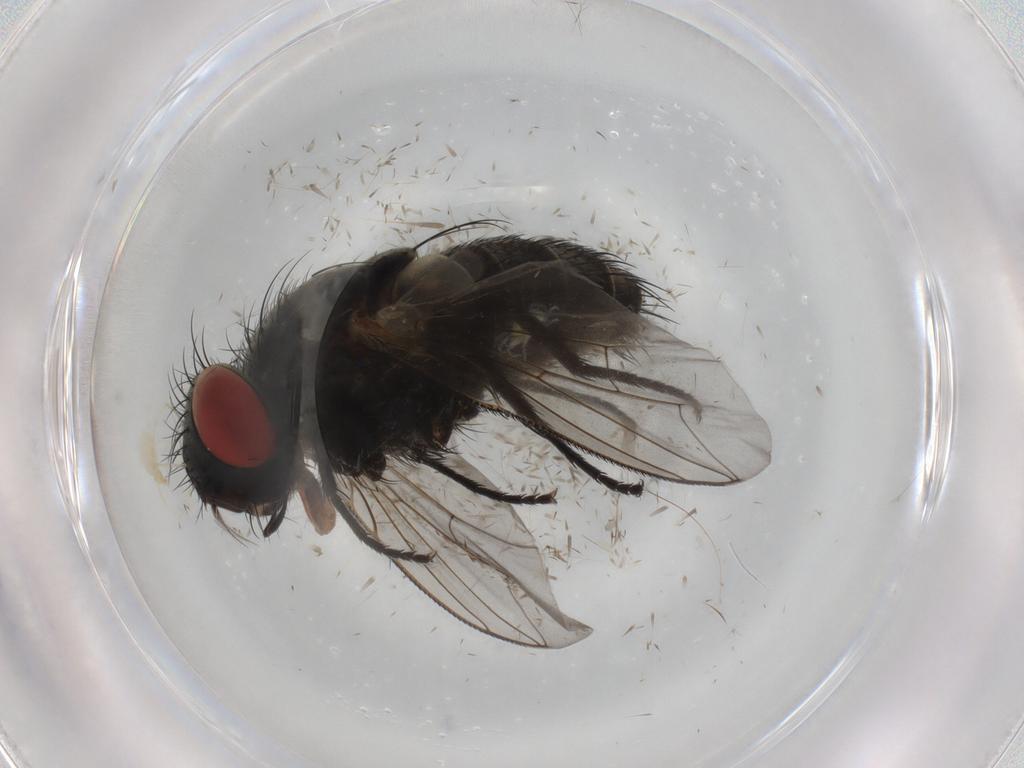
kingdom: Animalia
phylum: Arthropoda
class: Insecta
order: Diptera
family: Sarcophagidae
